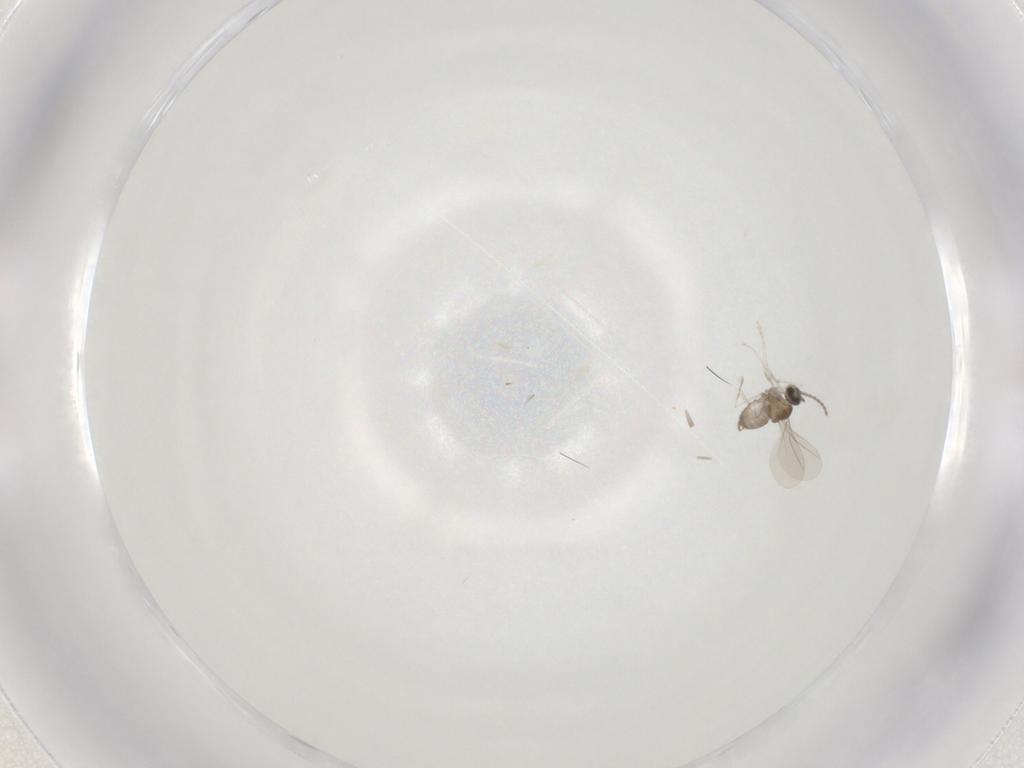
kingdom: Animalia
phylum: Arthropoda
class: Insecta
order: Diptera
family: Cecidomyiidae
